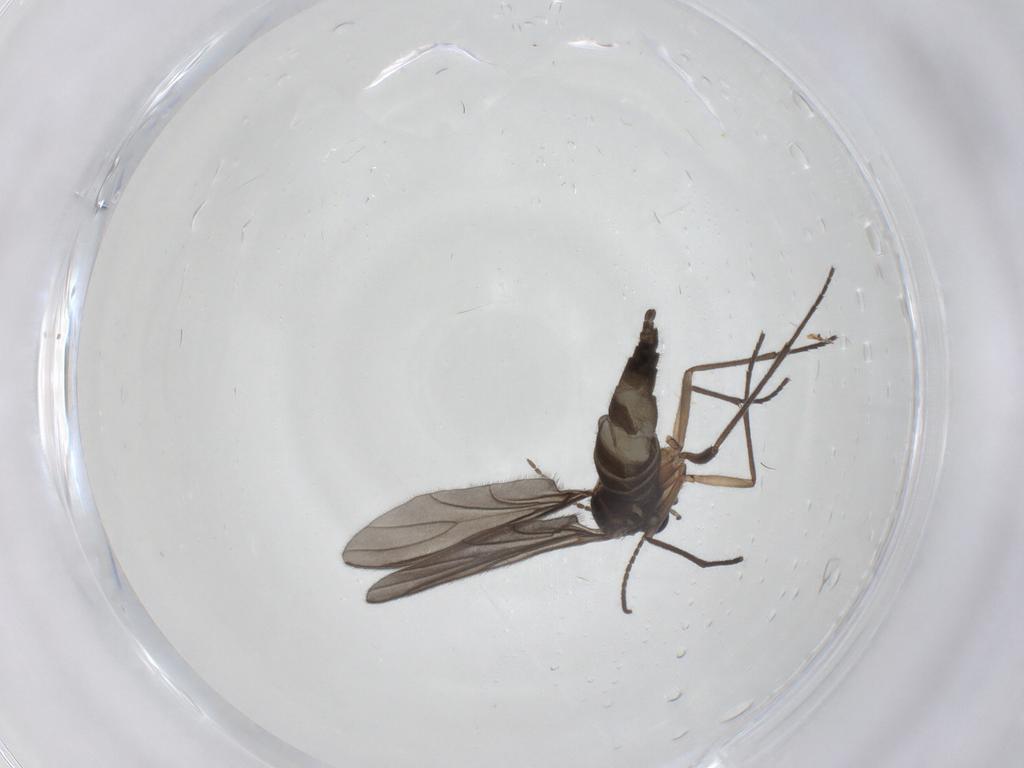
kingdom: Animalia
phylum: Arthropoda
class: Insecta
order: Diptera
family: Sciaridae
